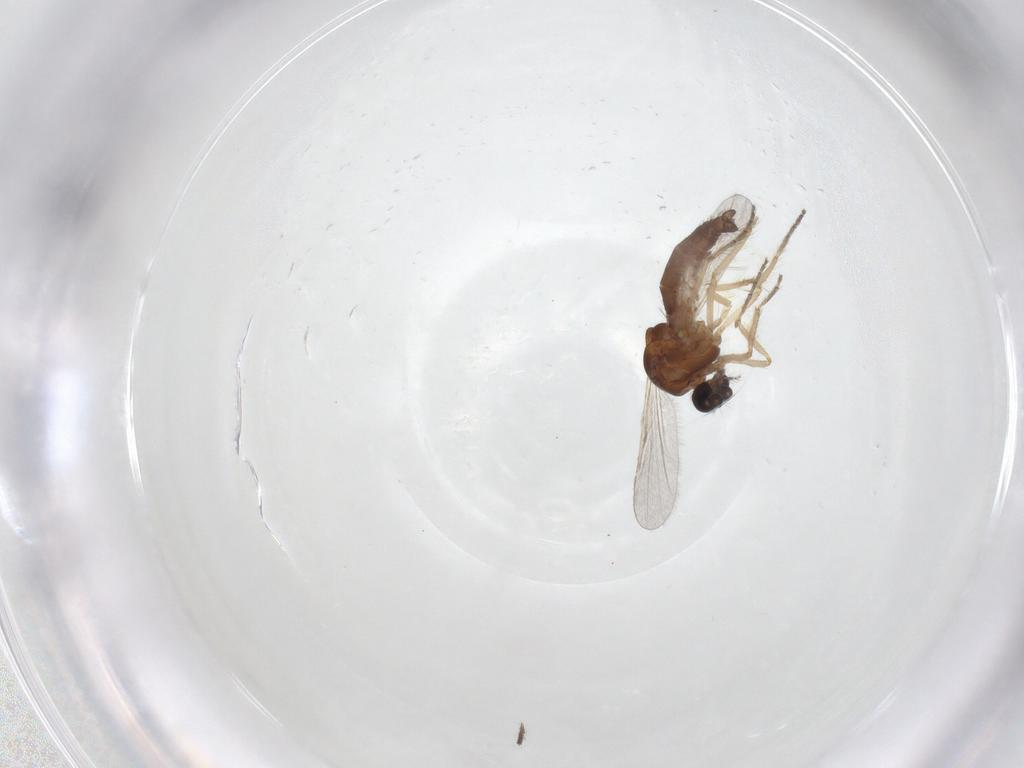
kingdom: Animalia
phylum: Arthropoda
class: Insecta
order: Diptera
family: Ceratopogonidae
